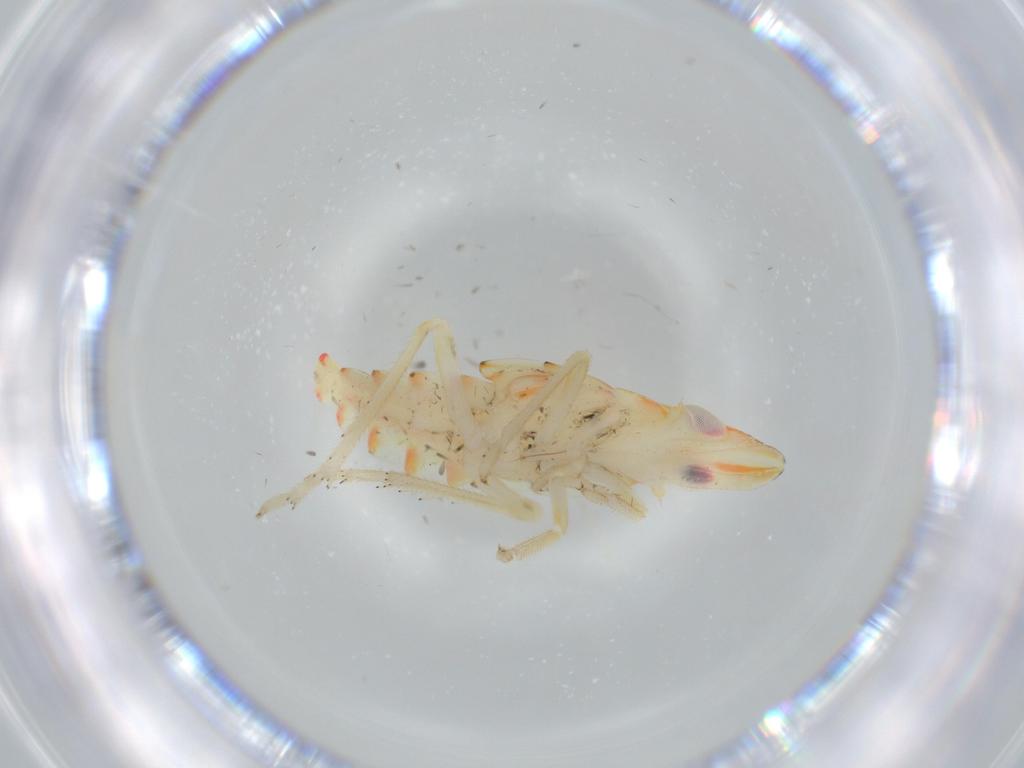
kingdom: Animalia
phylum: Arthropoda
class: Insecta
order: Hemiptera
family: Tropiduchidae
